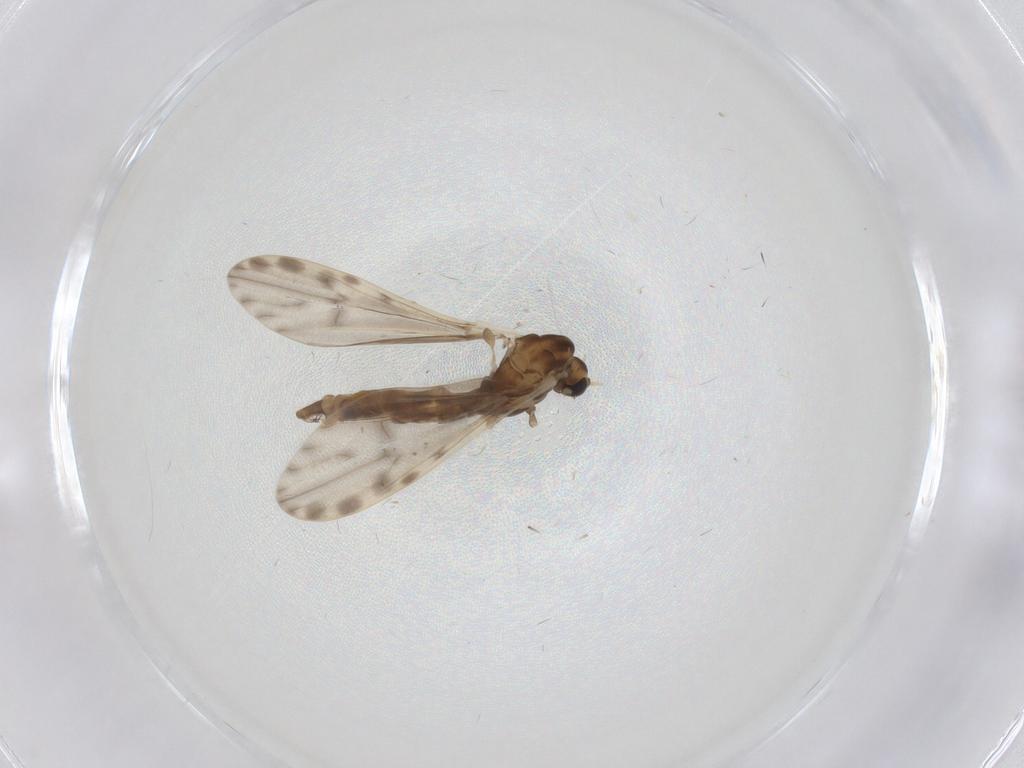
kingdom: Animalia
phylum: Arthropoda
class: Insecta
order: Diptera
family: Limoniidae
